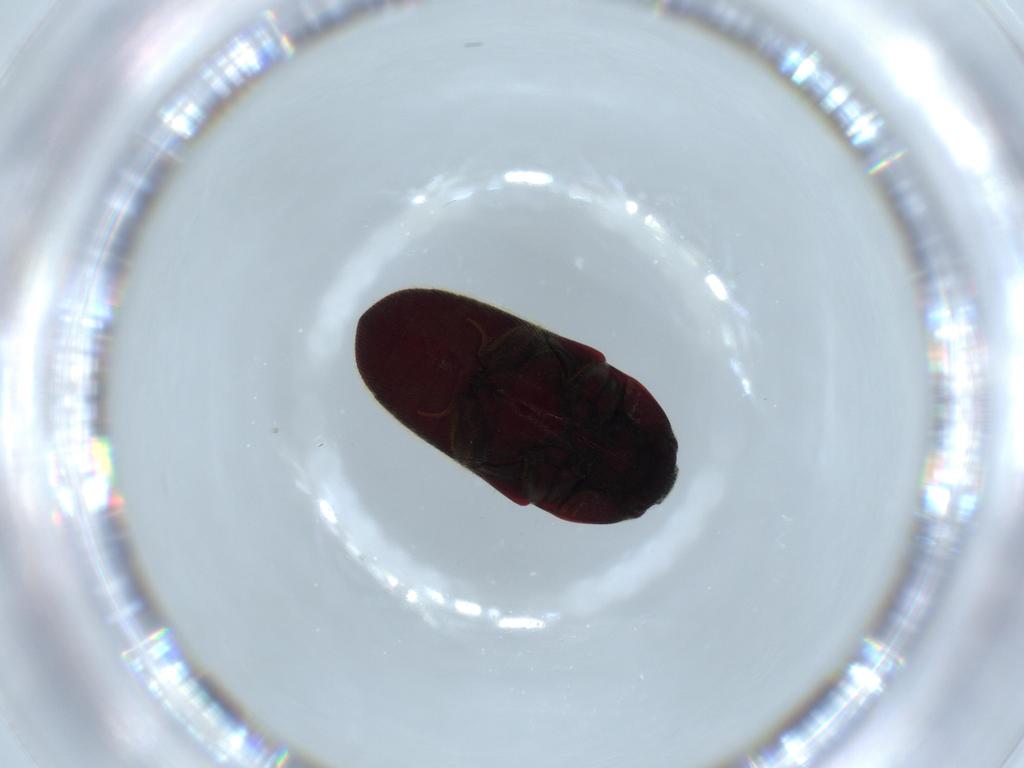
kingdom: Animalia
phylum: Arthropoda
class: Insecta
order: Coleoptera
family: Throscidae
